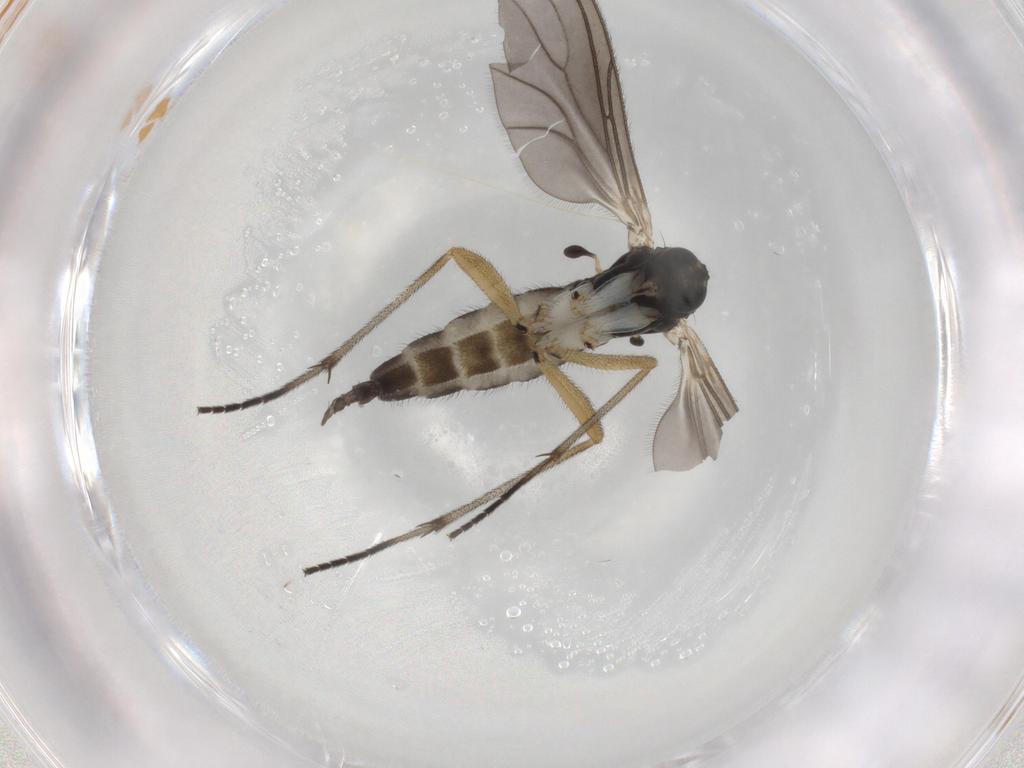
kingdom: Animalia
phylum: Arthropoda
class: Insecta
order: Diptera
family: Sciaridae
